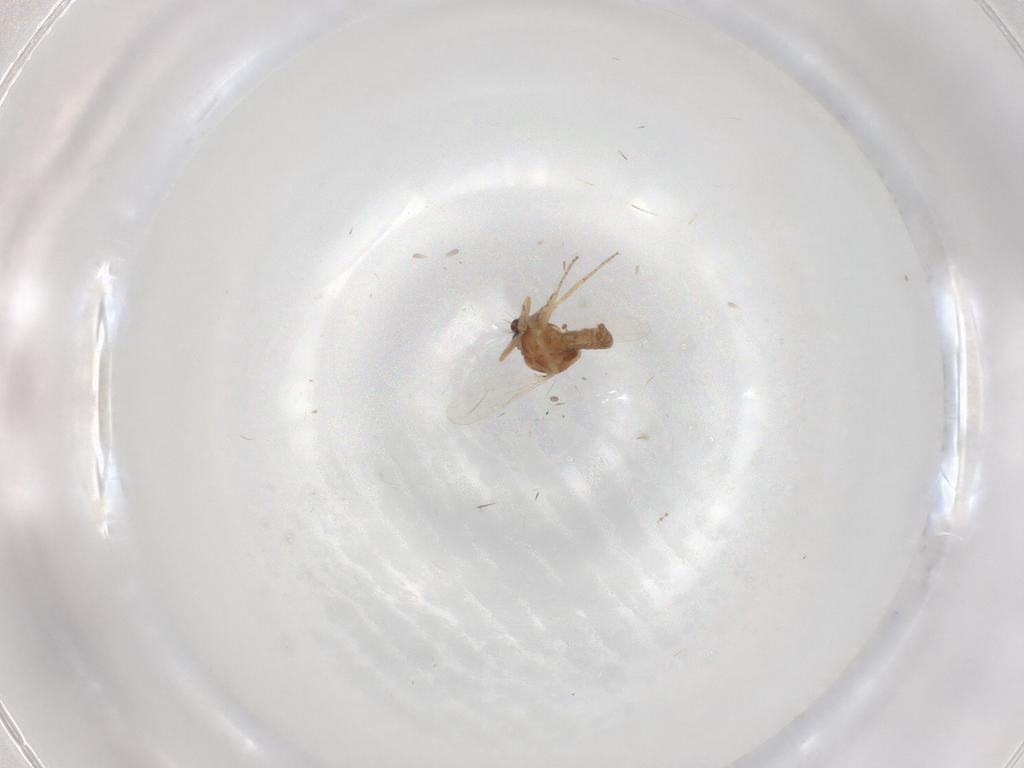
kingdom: Animalia
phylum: Arthropoda
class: Insecta
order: Diptera
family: Ceratopogonidae
